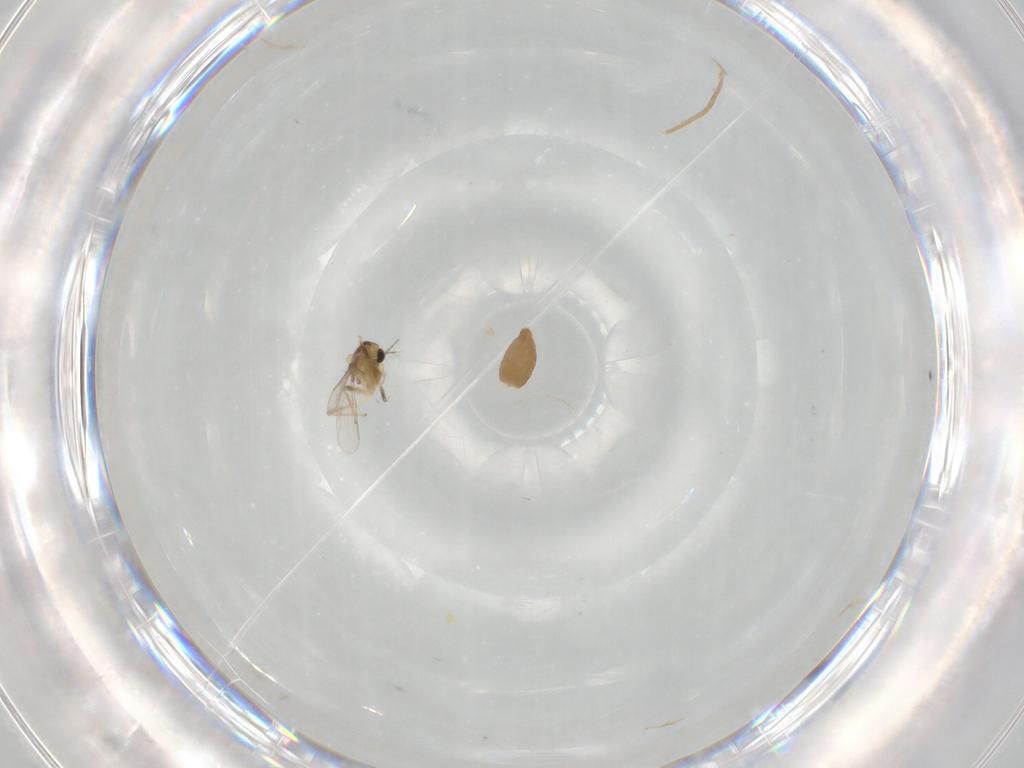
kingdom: Animalia
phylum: Arthropoda
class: Insecta
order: Diptera
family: Chironomidae
